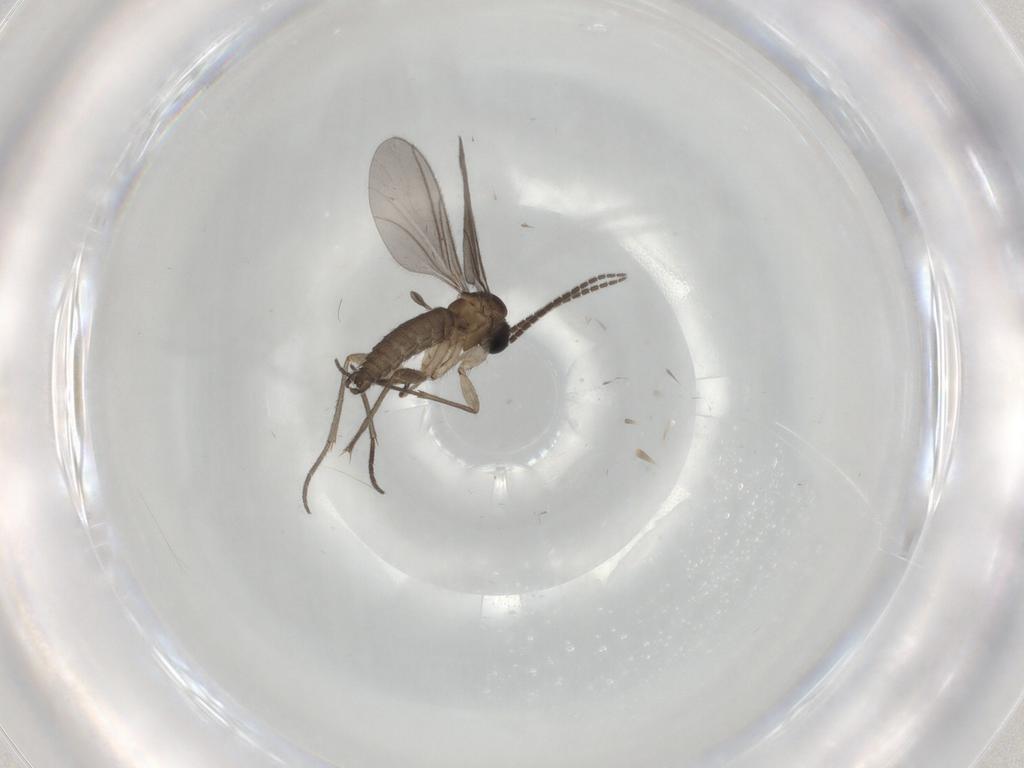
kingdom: Animalia
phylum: Arthropoda
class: Insecta
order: Diptera
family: Sciaridae
